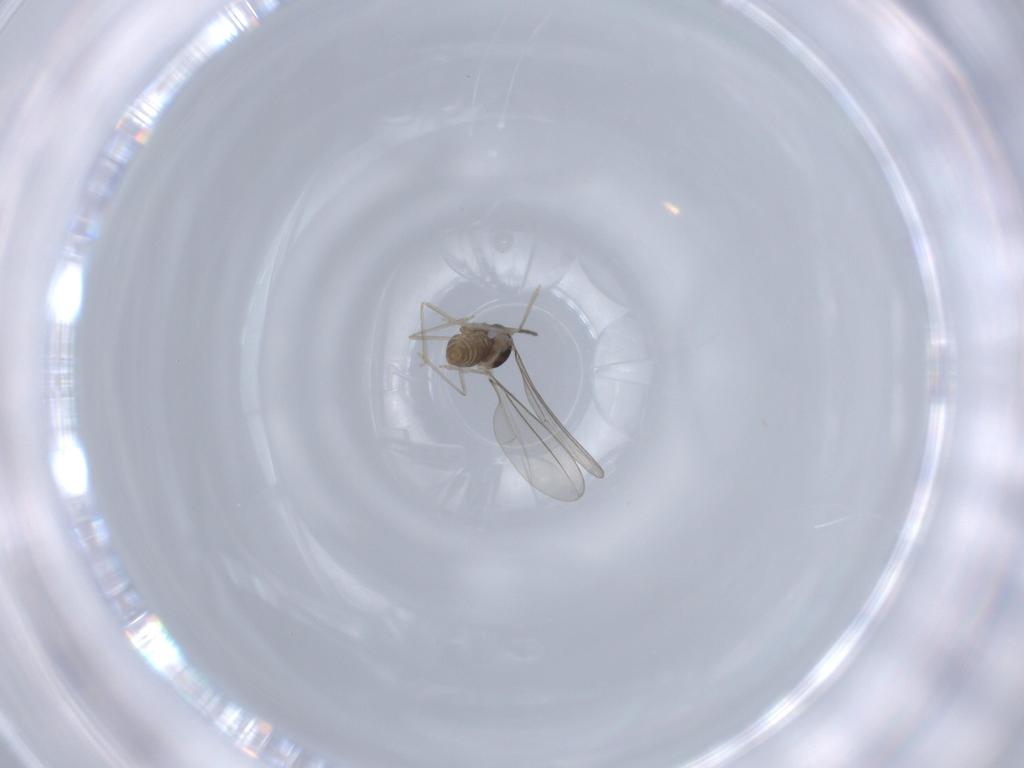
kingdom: Animalia
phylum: Arthropoda
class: Insecta
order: Diptera
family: Cecidomyiidae
